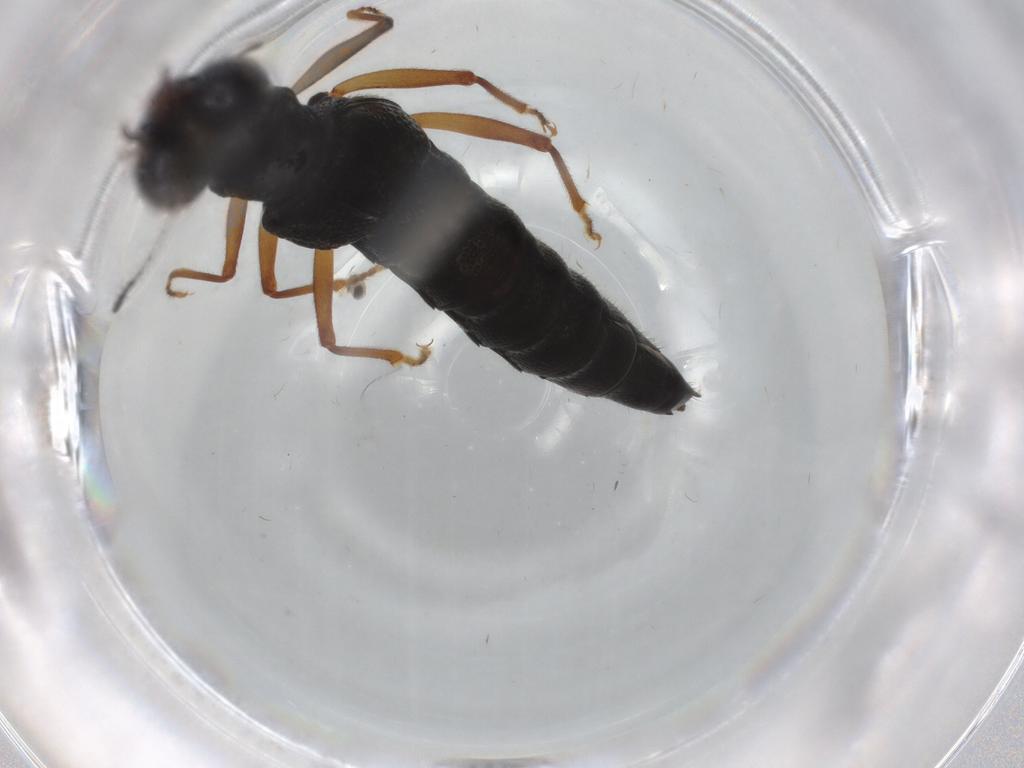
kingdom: Animalia
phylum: Arthropoda
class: Insecta
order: Coleoptera
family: Staphylinidae
